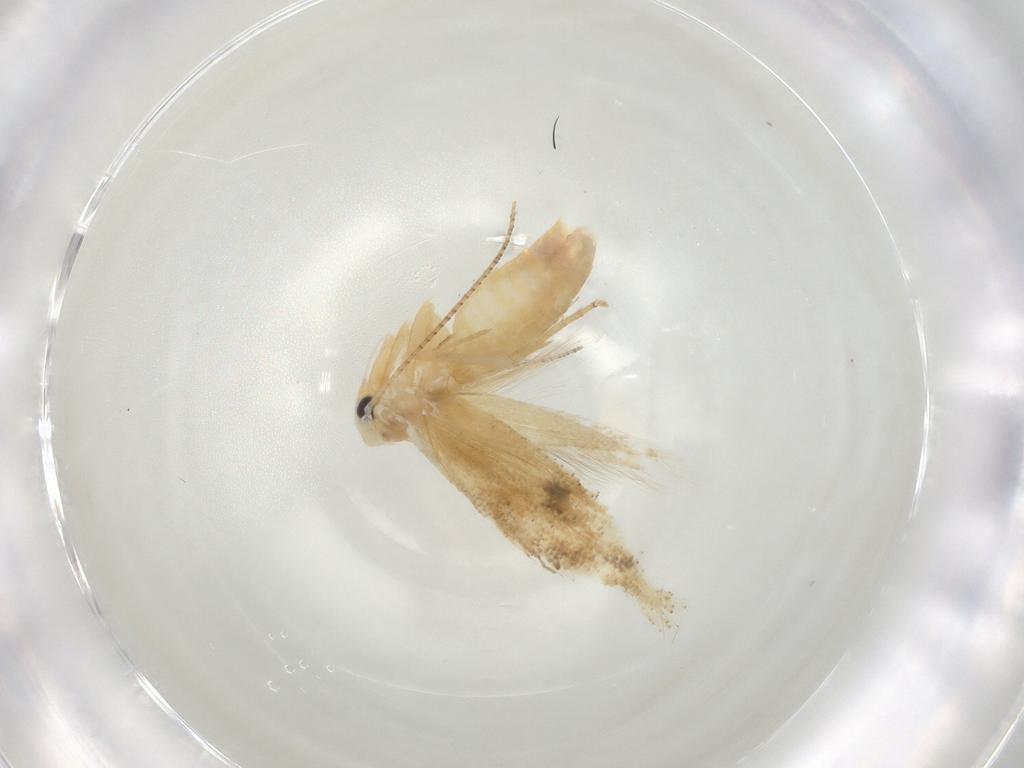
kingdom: Animalia
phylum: Arthropoda
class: Insecta
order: Lepidoptera
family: Bucculatricidae
